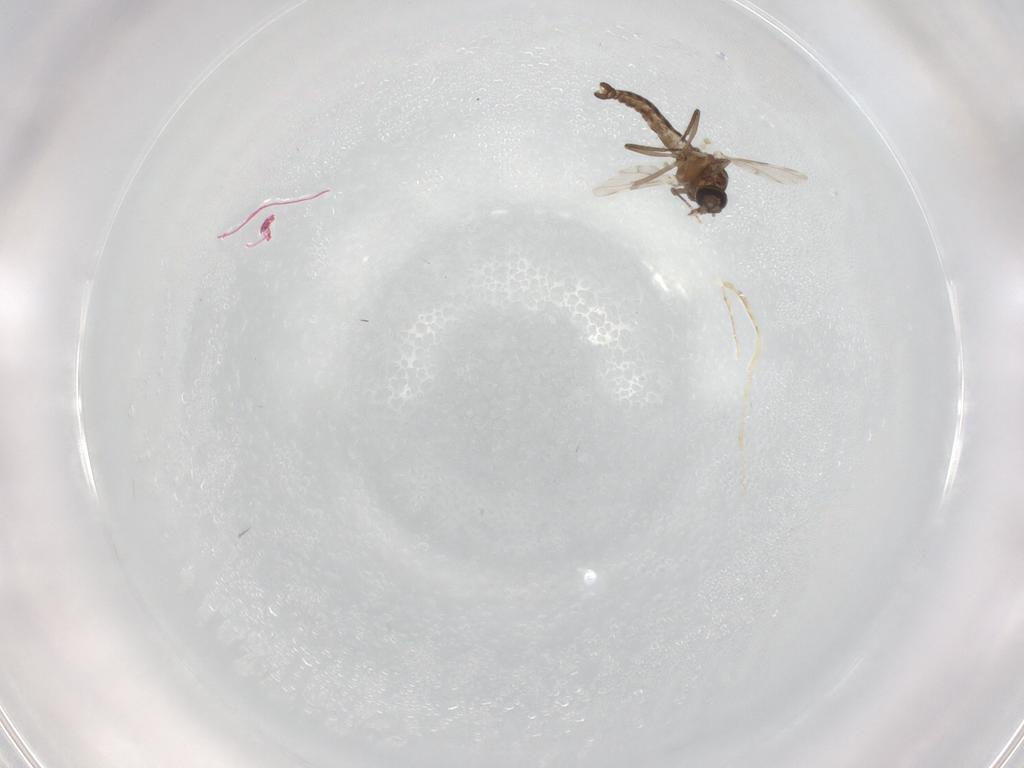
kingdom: Animalia
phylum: Arthropoda
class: Insecta
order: Diptera
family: Ceratopogonidae
